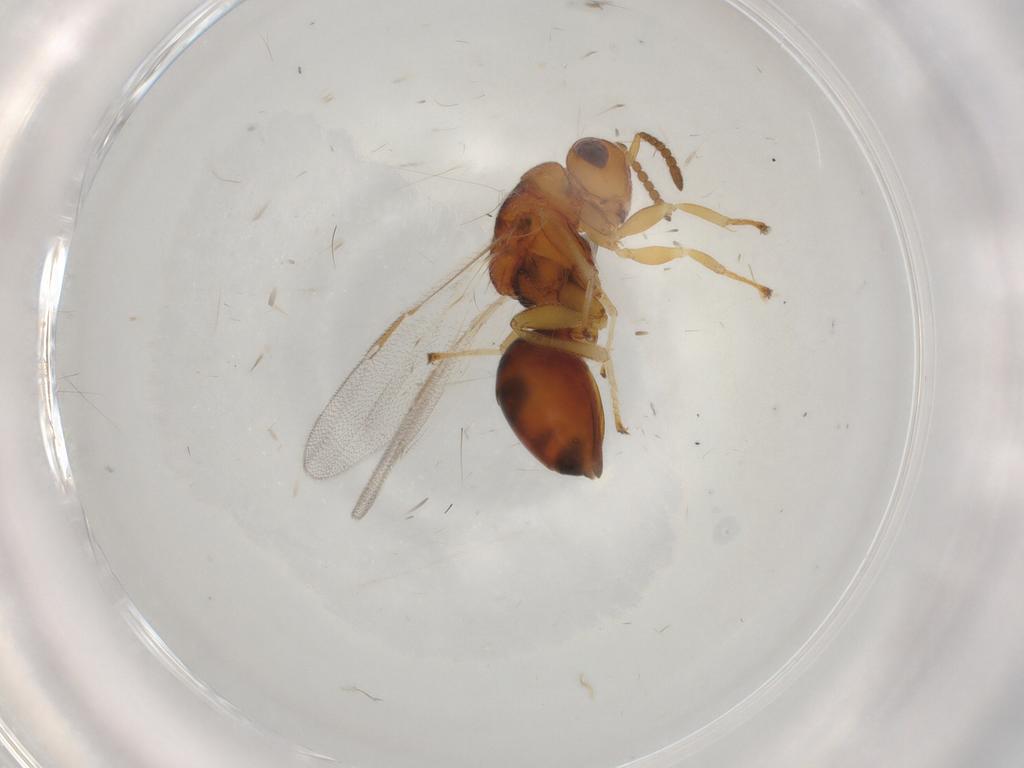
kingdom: Animalia
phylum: Arthropoda
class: Insecta
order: Hymenoptera
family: Eurytomidae
